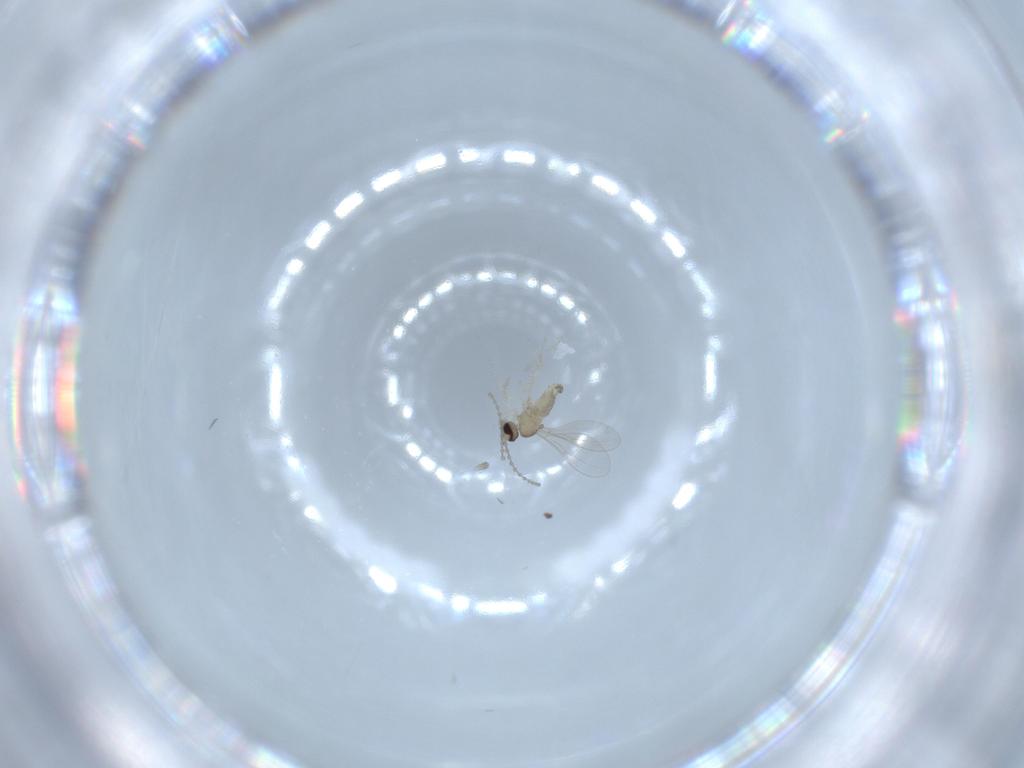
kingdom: Animalia
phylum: Arthropoda
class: Insecta
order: Diptera
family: Cecidomyiidae
